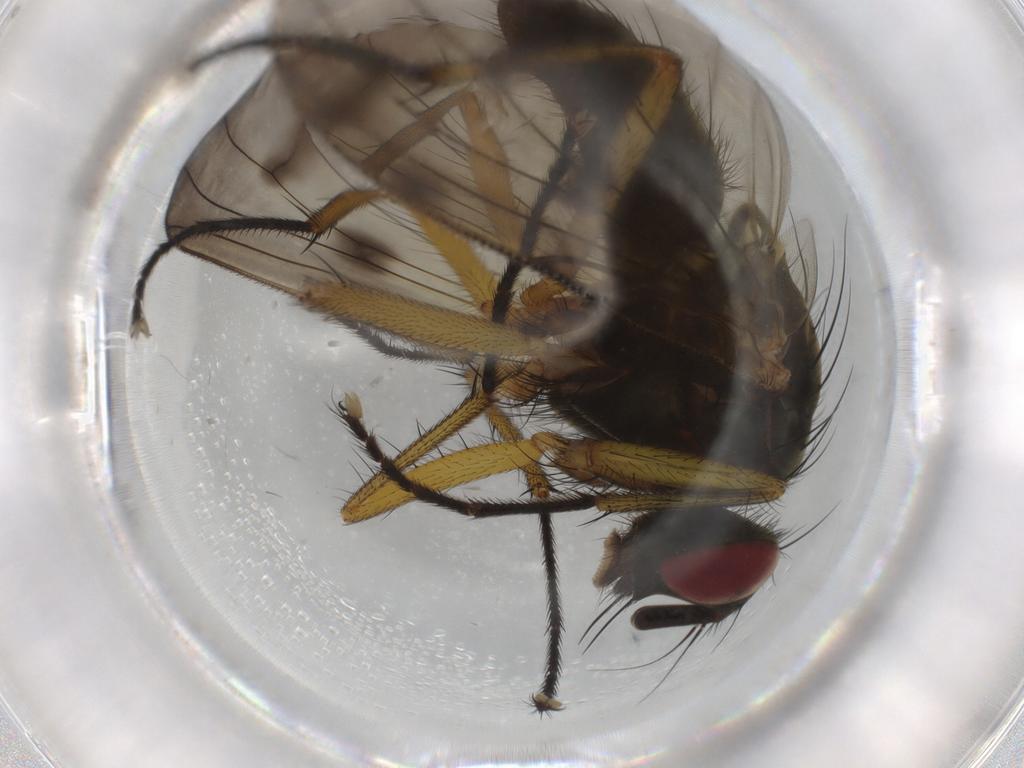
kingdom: Animalia
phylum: Arthropoda
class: Insecta
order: Diptera
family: Muscidae
